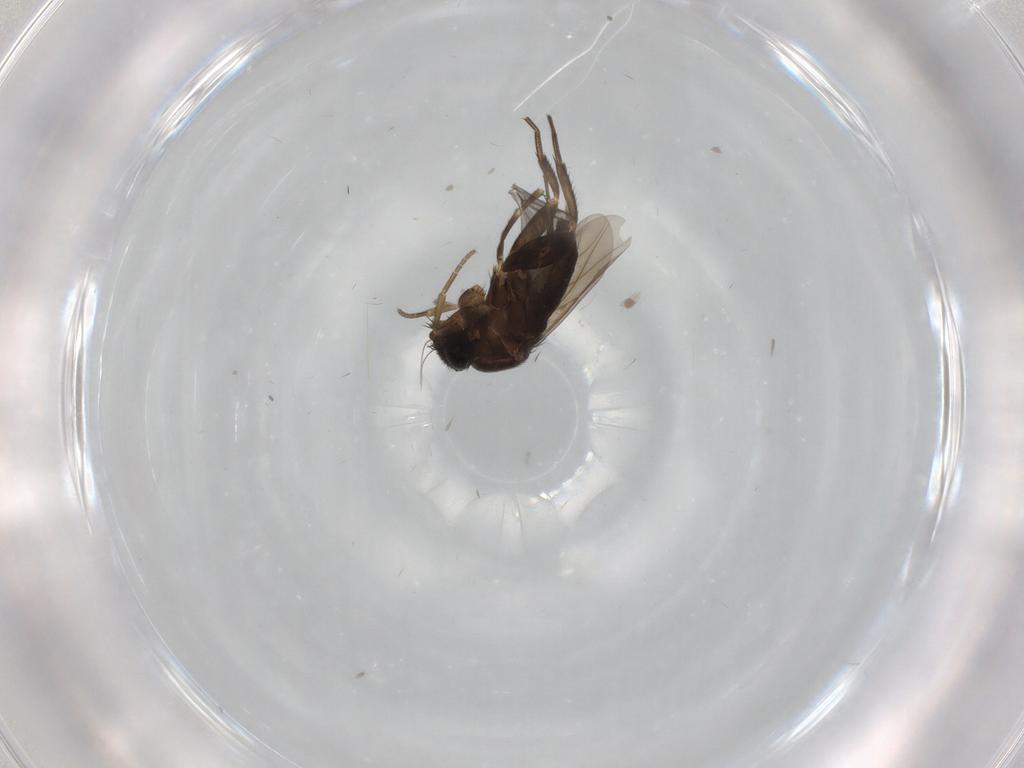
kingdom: Animalia
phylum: Arthropoda
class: Insecta
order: Diptera
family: Phoridae
